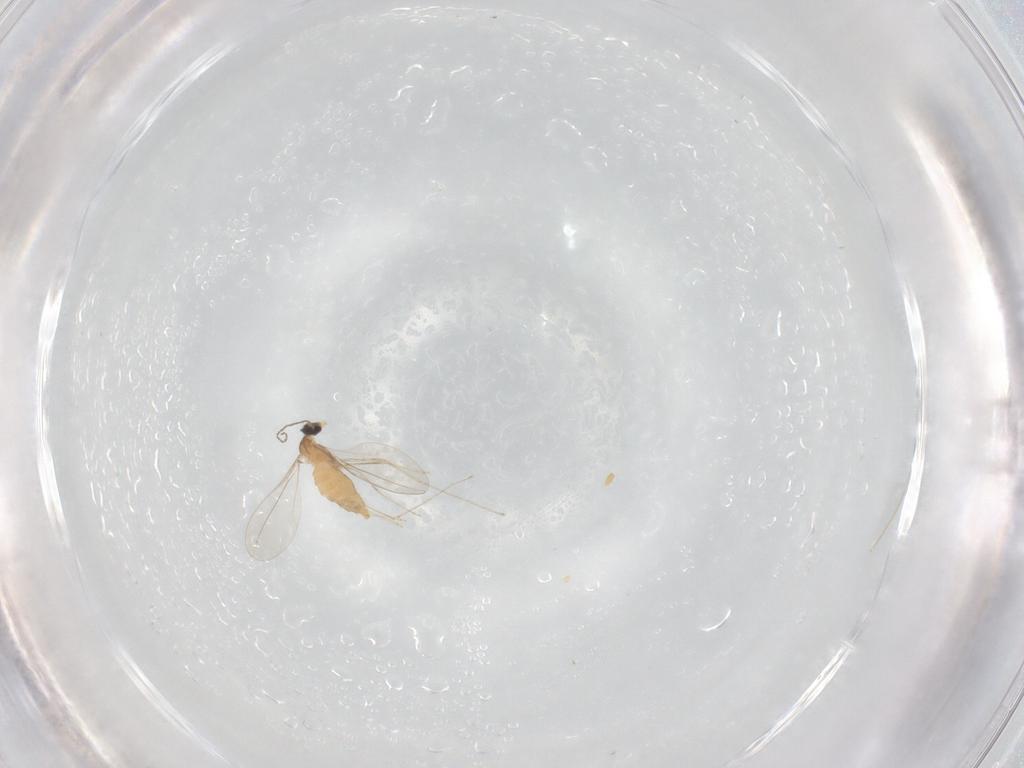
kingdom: Animalia
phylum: Arthropoda
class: Insecta
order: Diptera
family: Cecidomyiidae
